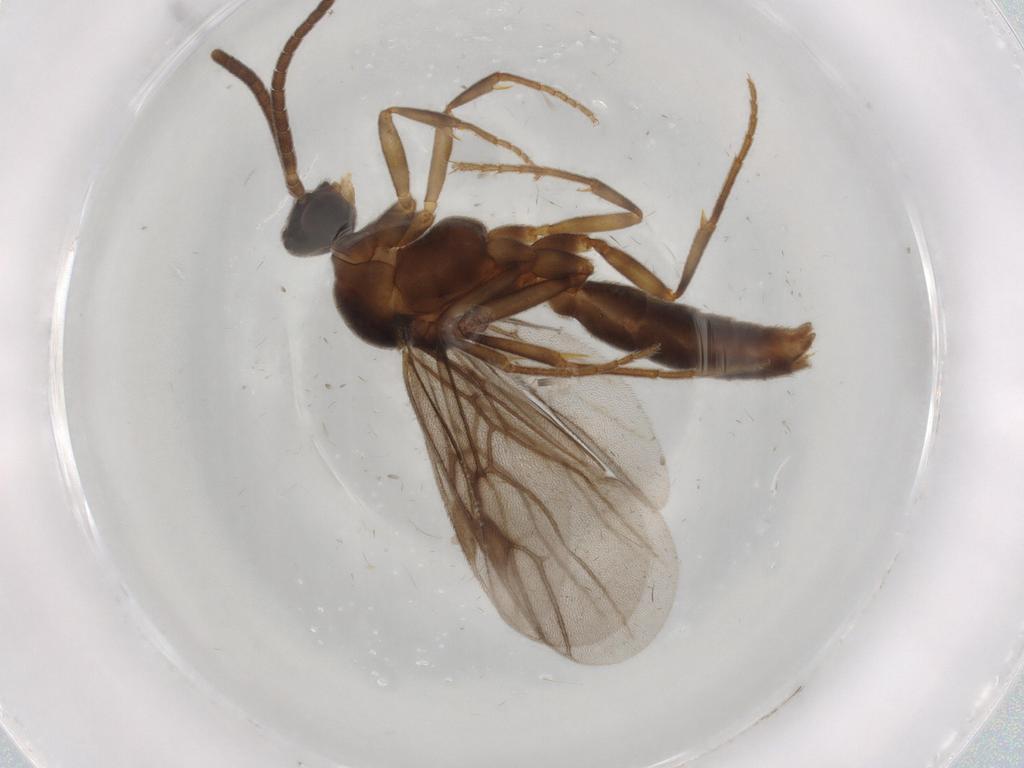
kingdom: Animalia
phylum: Arthropoda
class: Insecta
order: Hymenoptera
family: Formicidae
